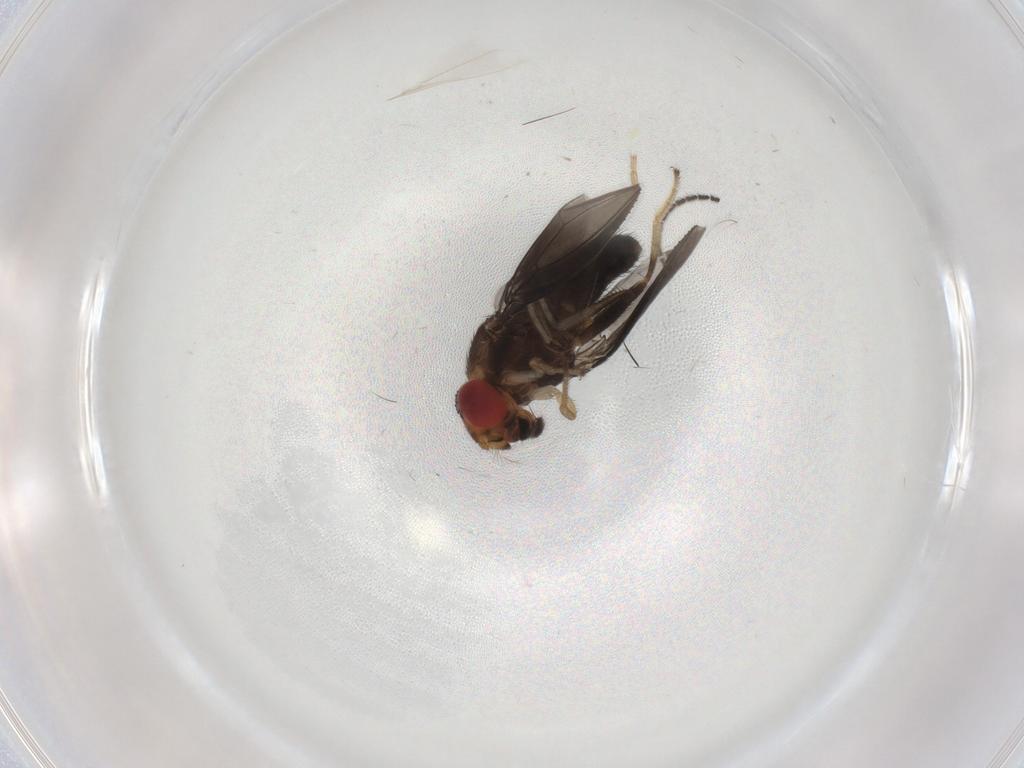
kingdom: Animalia
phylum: Arthropoda
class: Insecta
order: Diptera
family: Sciaridae
